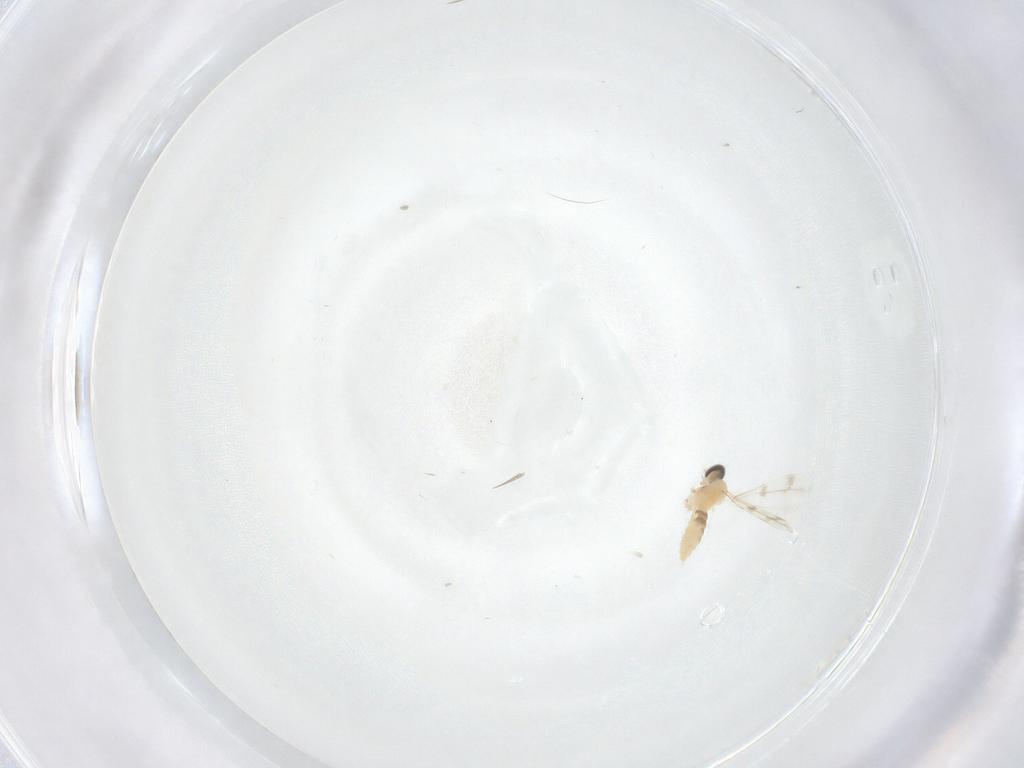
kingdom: Animalia
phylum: Arthropoda
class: Insecta
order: Diptera
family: Cecidomyiidae
